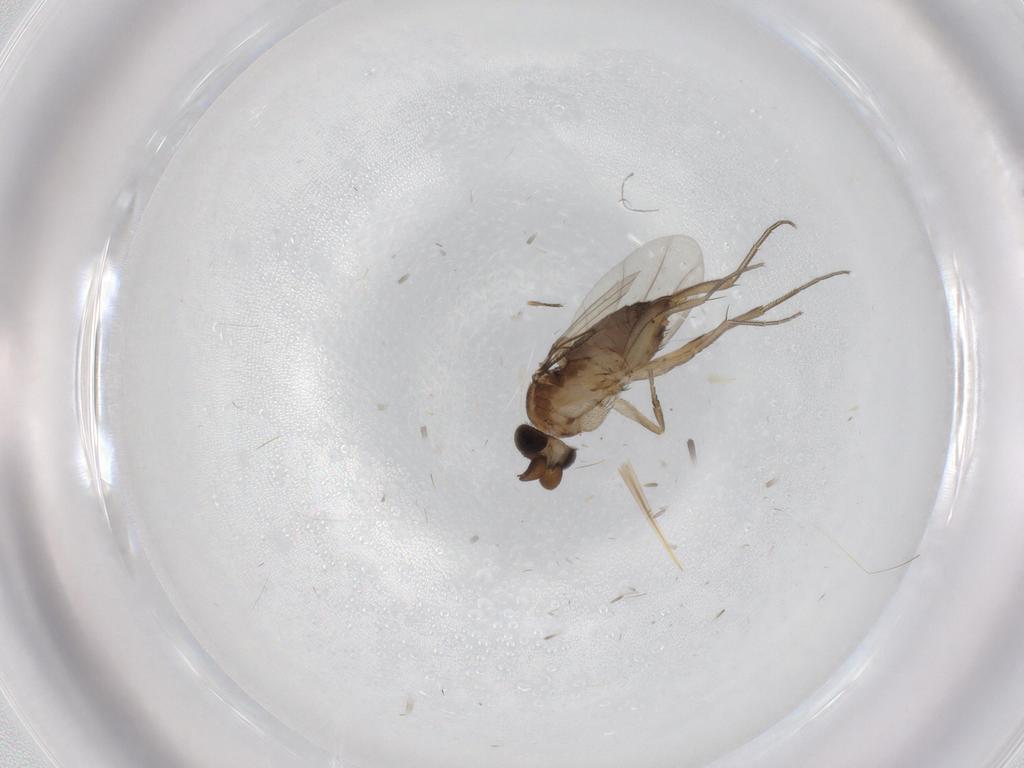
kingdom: Animalia
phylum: Arthropoda
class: Insecta
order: Diptera
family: Phoridae
